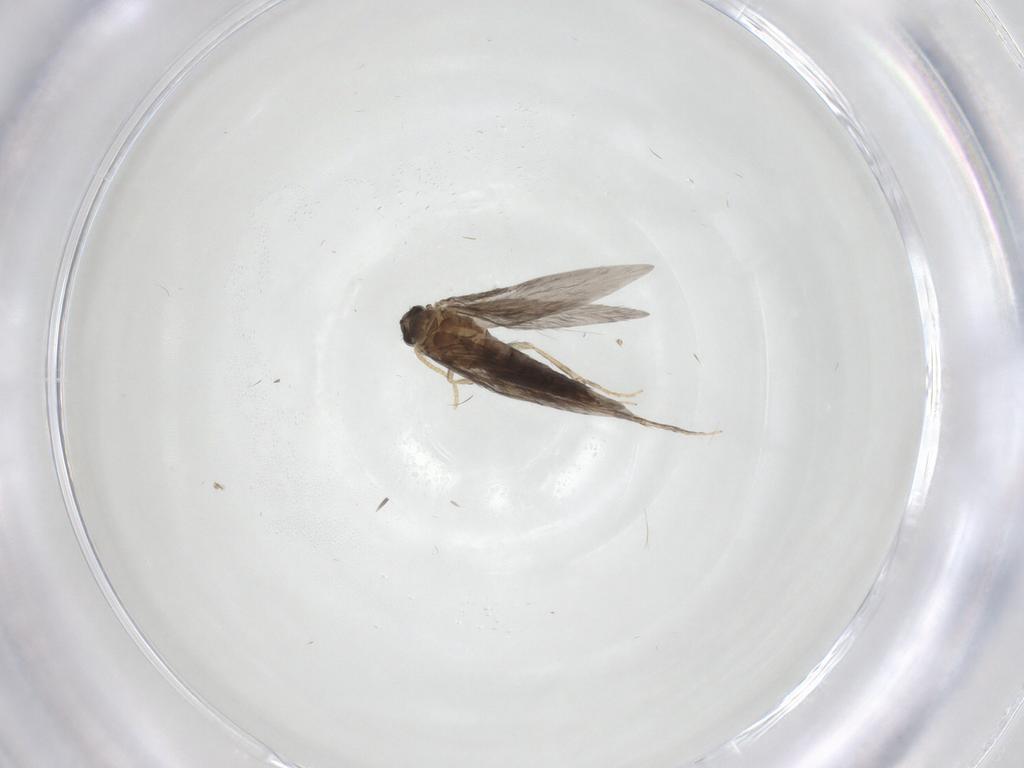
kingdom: Animalia
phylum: Arthropoda
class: Insecta
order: Trichoptera
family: Hydroptilidae
